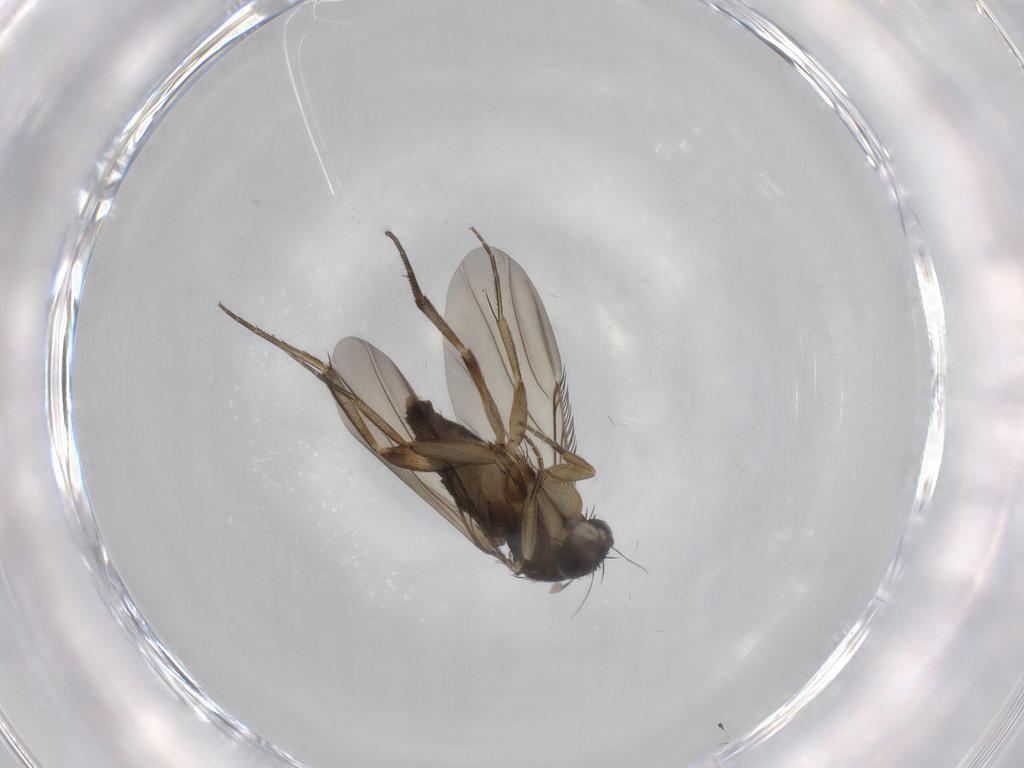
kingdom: Animalia
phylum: Arthropoda
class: Insecta
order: Diptera
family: Phoridae
